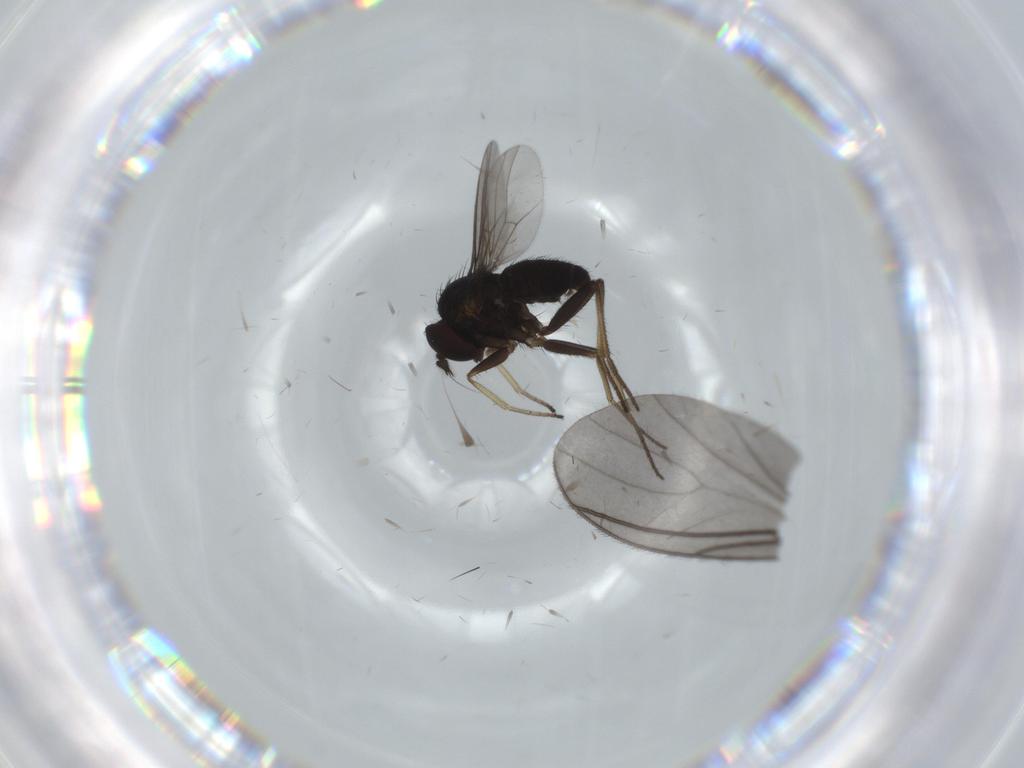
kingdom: Animalia
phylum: Arthropoda
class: Insecta
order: Diptera
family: Dolichopodidae
